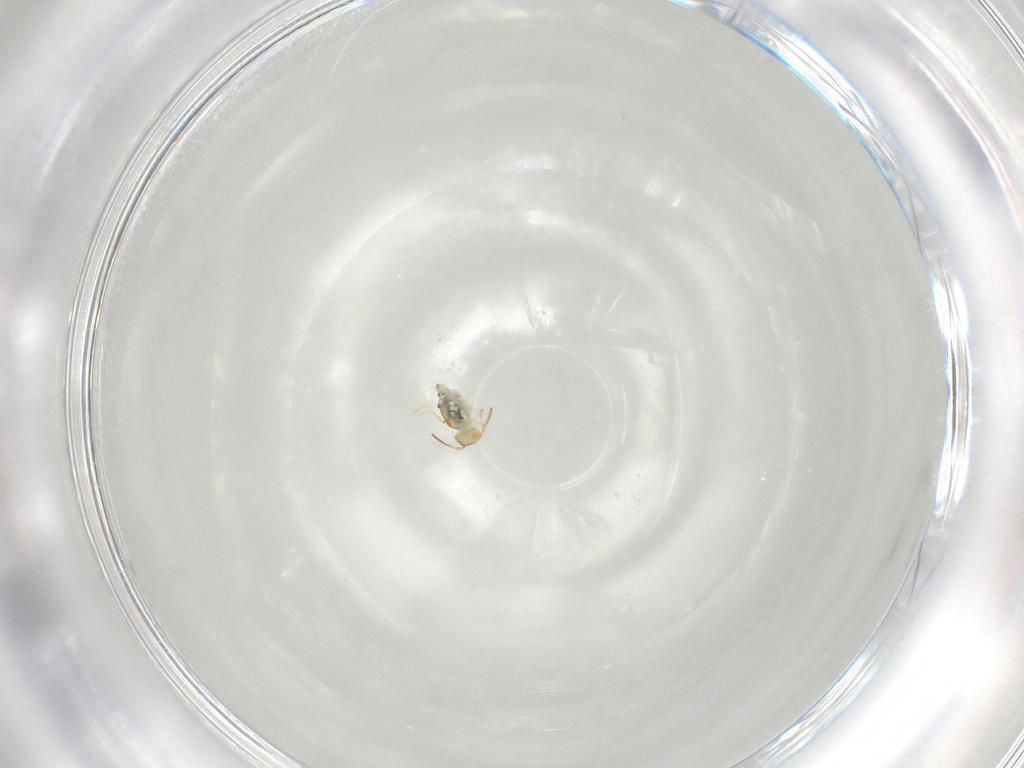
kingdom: Animalia
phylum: Arthropoda
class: Collembola
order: Symphypleona
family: Bourletiellidae
